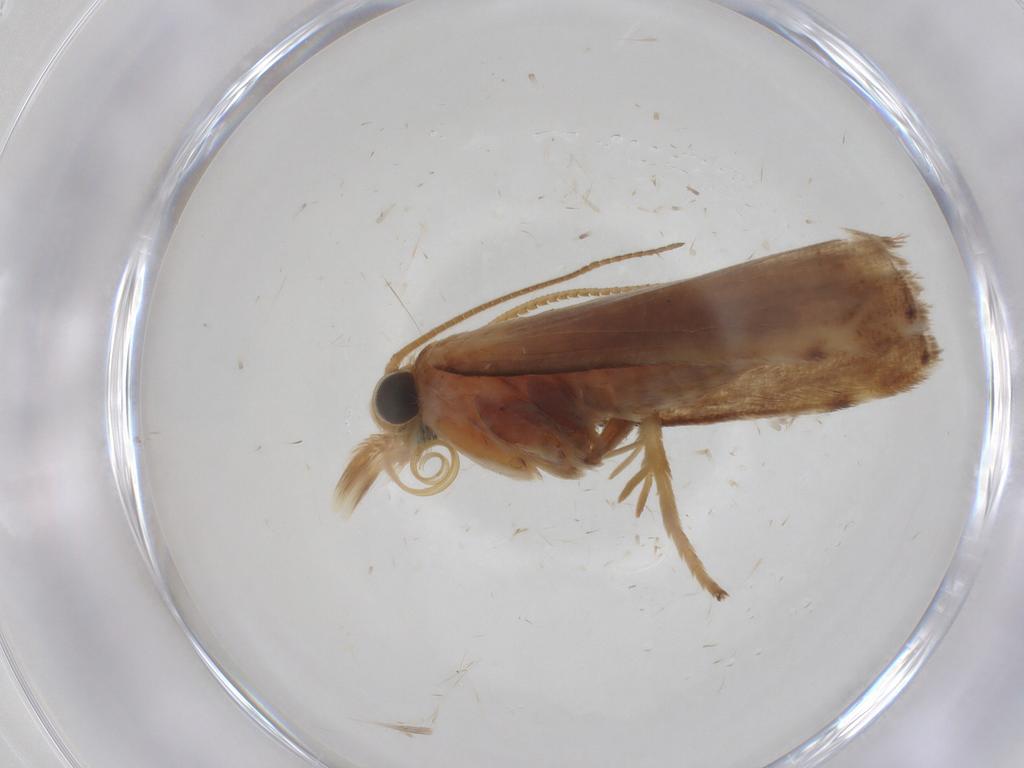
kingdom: Animalia
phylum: Arthropoda
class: Insecta
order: Lepidoptera
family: Pyralidae
